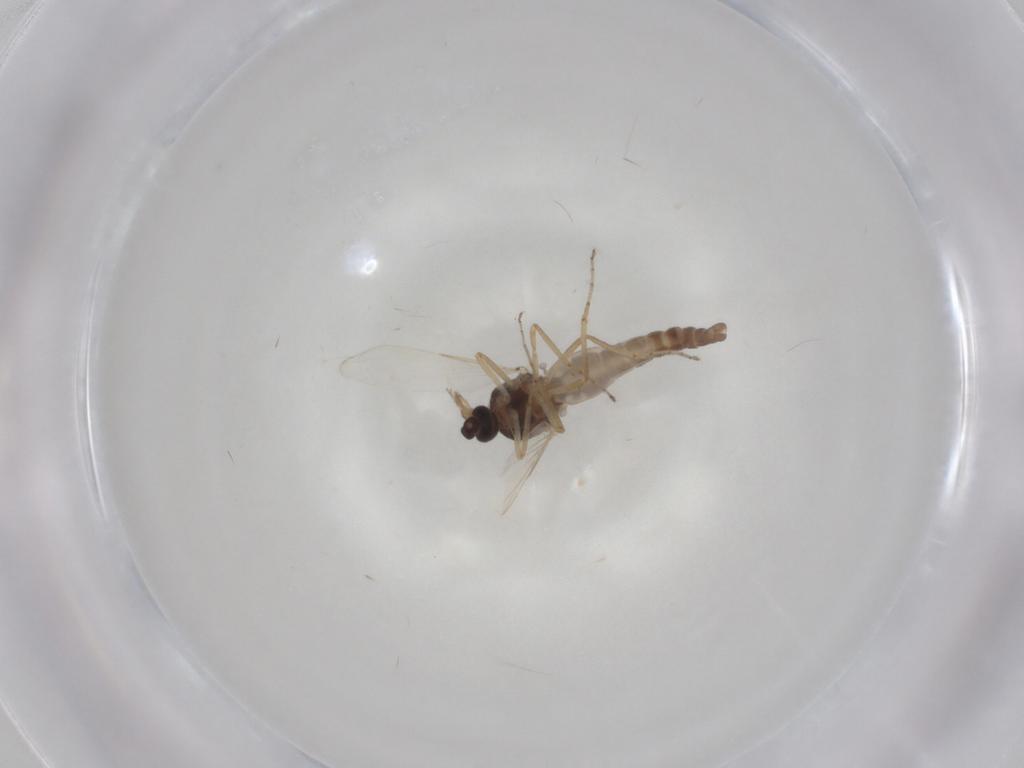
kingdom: Animalia
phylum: Arthropoda
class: Insecta
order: Diptera
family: Ceratopogonidae
